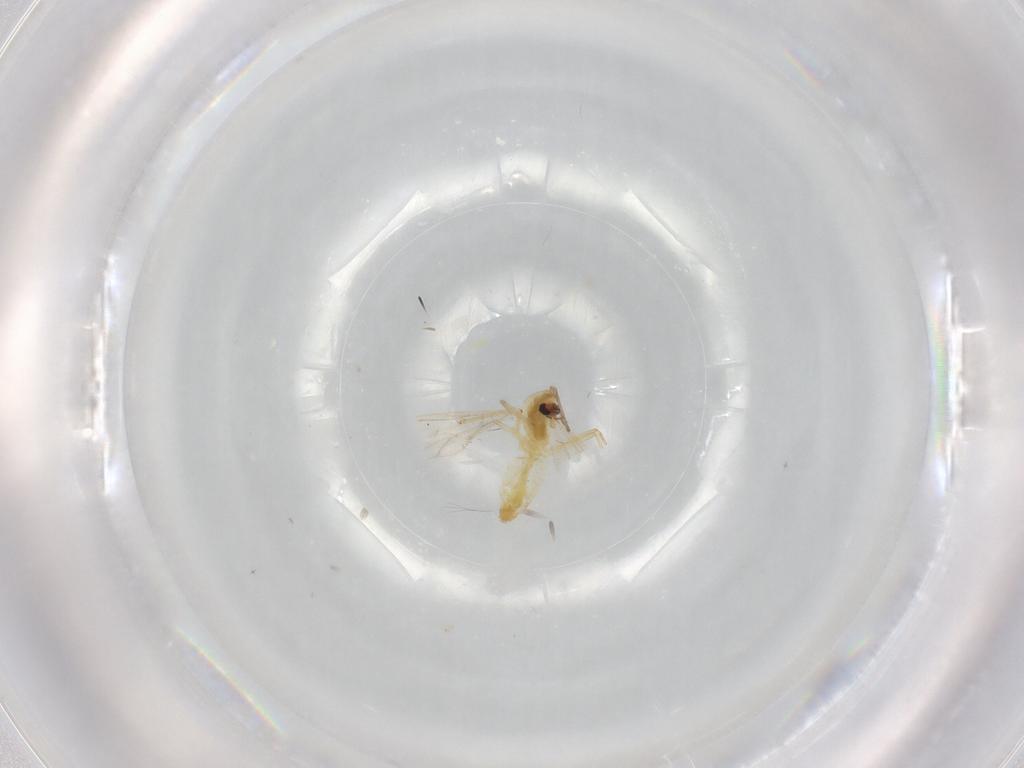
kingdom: Animalia
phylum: Arthropoda
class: Insecta
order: Diptera
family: Chironomidae
